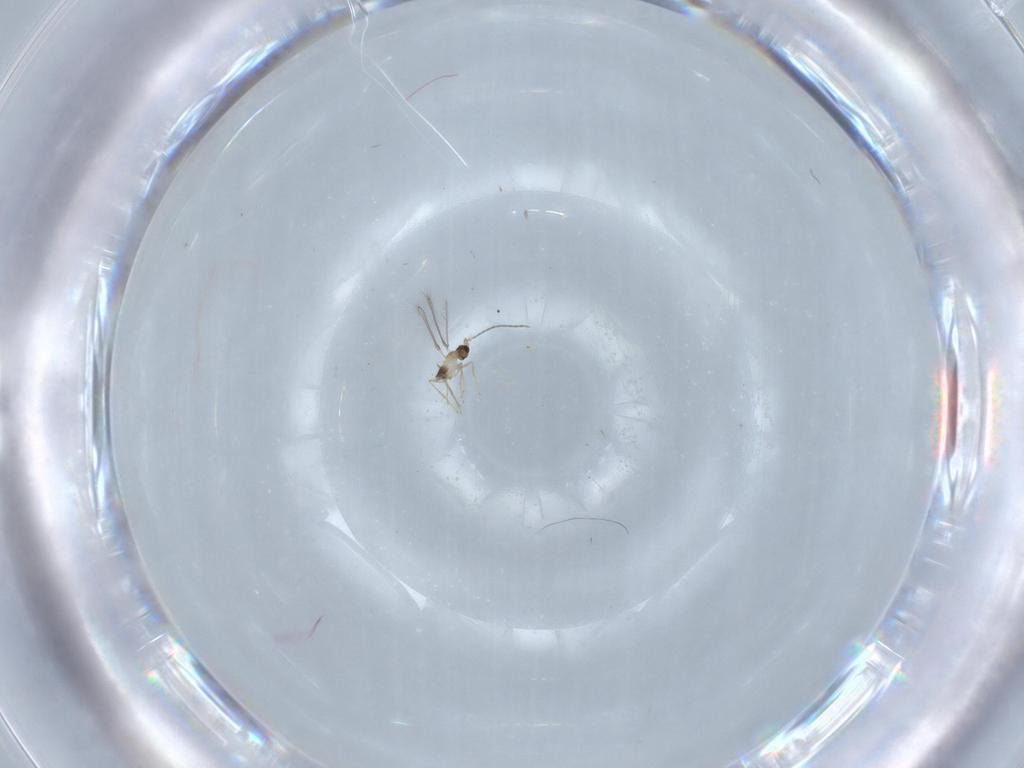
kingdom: Animalia
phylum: Arthropoda
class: Insecta
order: Hymenoptera
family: Mymaridae
